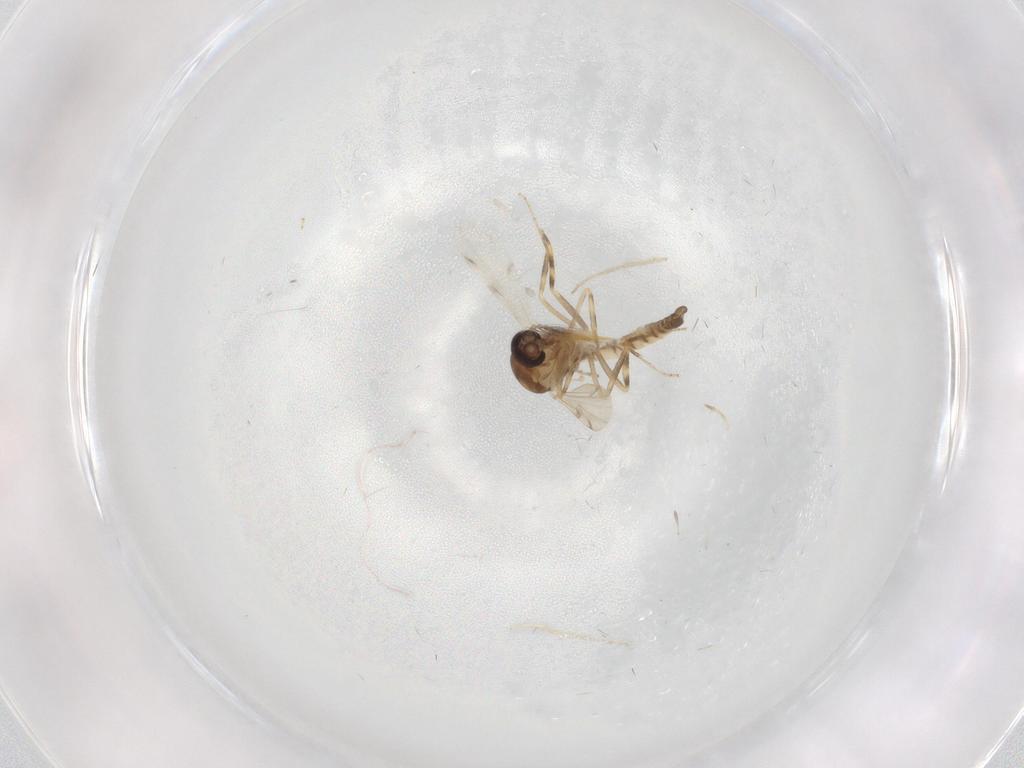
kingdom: Animalia
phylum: Arthropoda
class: Insecta
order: Diptera
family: Ceratopogonidae
